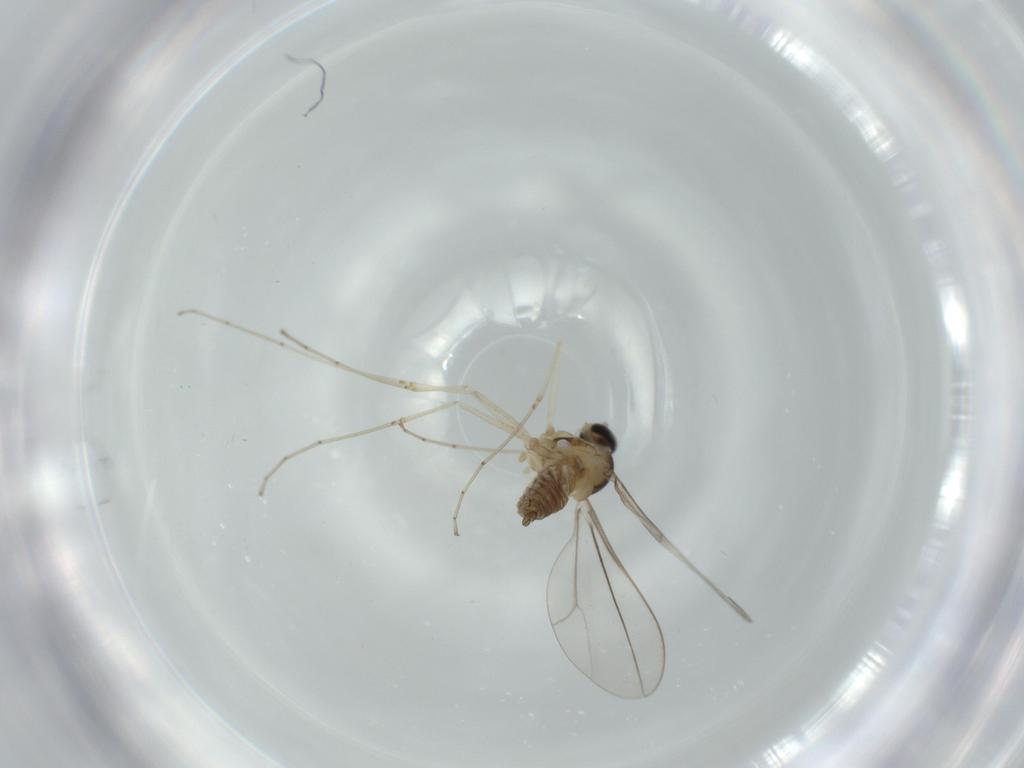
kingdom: Animalia
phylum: Arthropoda
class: Insecta
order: Diptera
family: Cecidomyiidae
